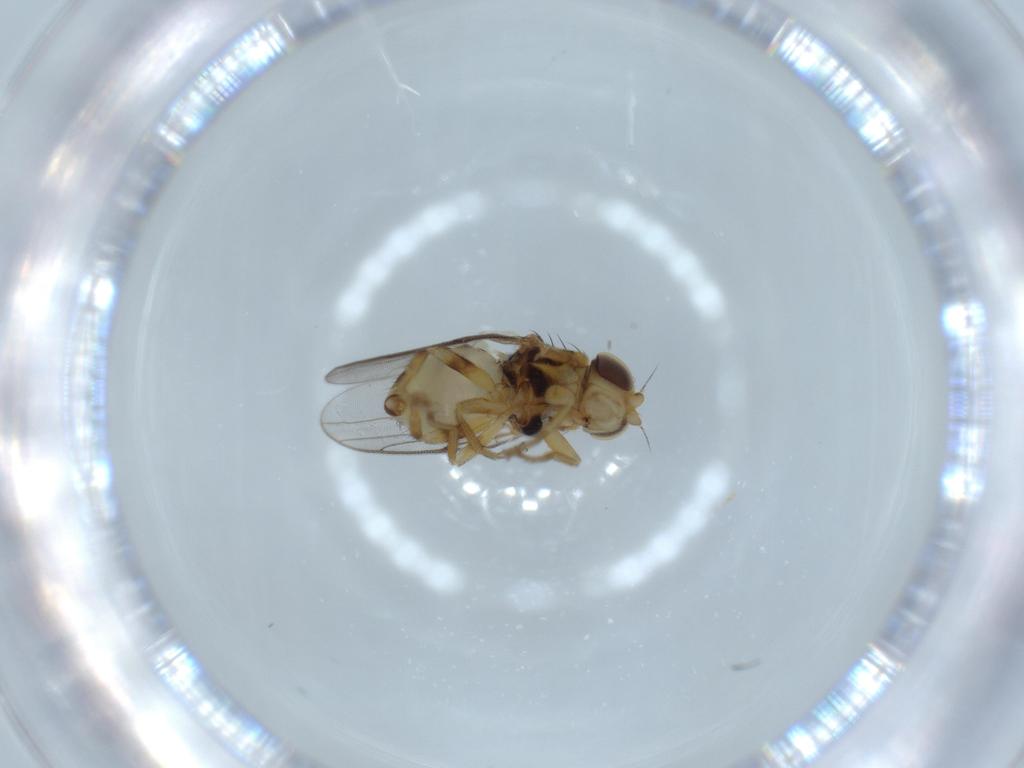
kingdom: Animalia
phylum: Arthropoda
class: Insecta
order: Diptera
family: Chloropidae
